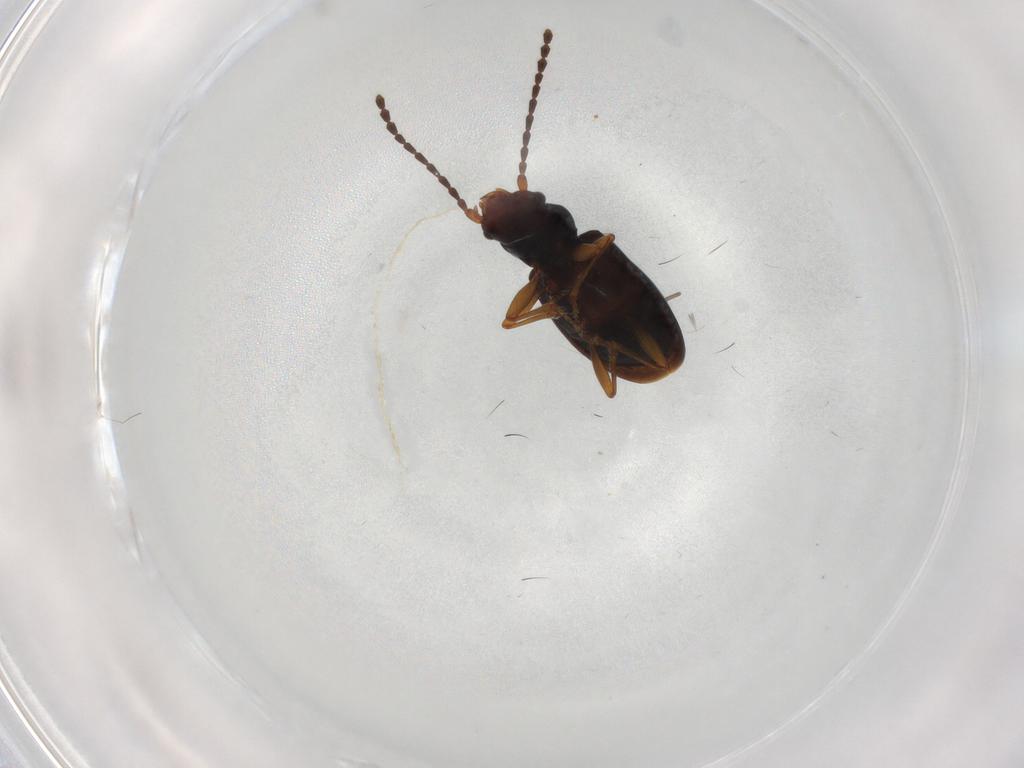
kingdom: Animalia
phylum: Arthropoda
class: Insecta
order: Coleoptera
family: Laemophloeidae
